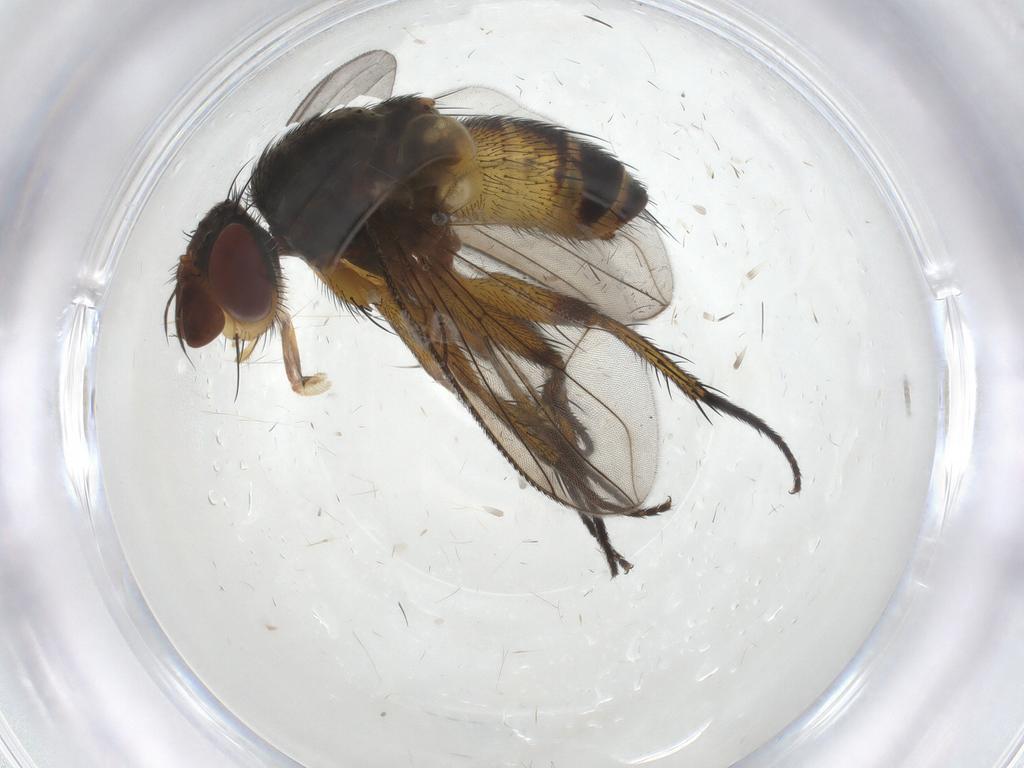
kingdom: Animalia
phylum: Arthropoda
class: Insecta
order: Diptera
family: Tachinidae
